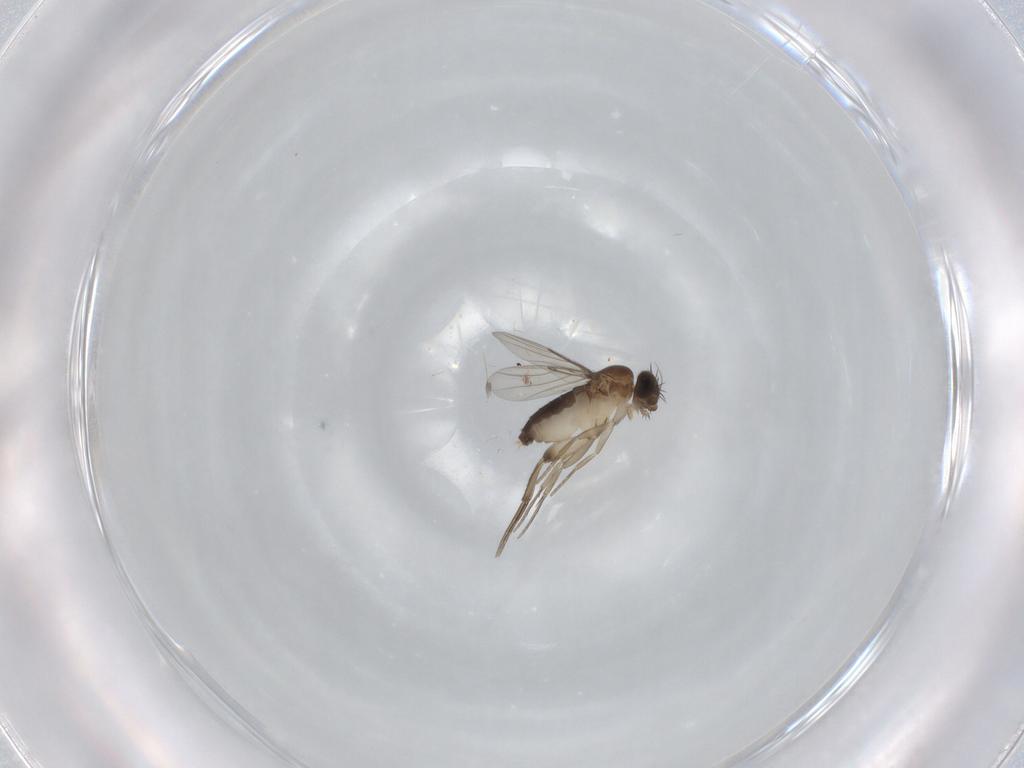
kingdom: Animalia
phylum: Arthropoda
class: Insecta
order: Diptera
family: Phoridae
